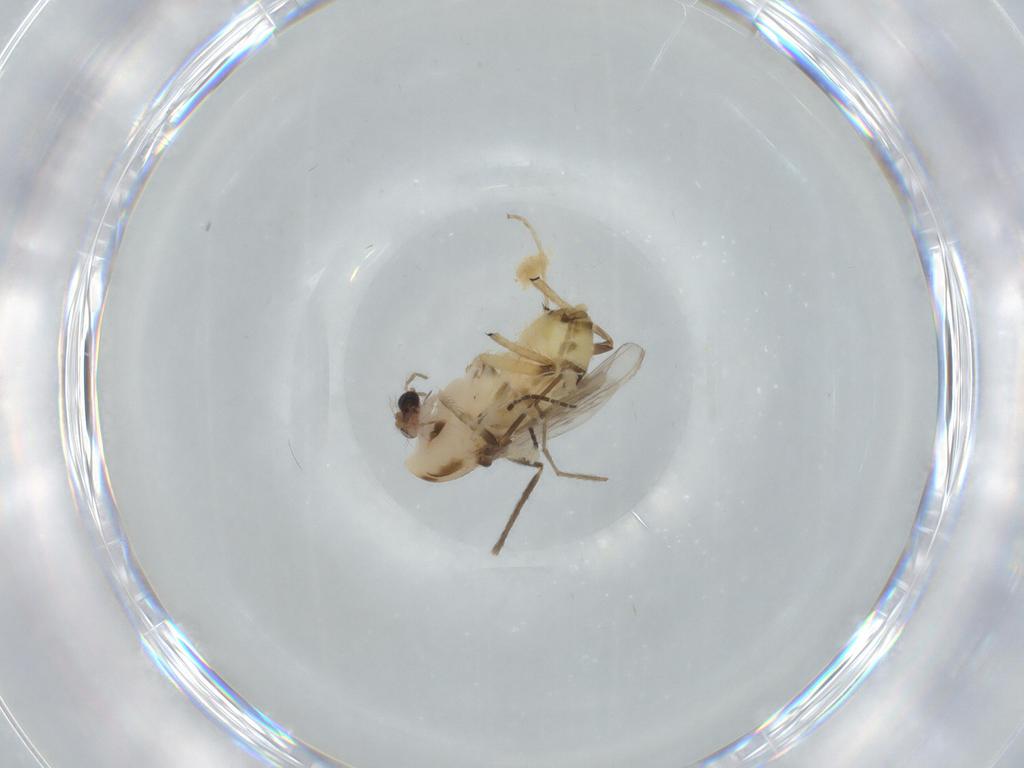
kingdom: Animalia
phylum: Arthropoda
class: Insecta
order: Diptera
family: Chironomidae
